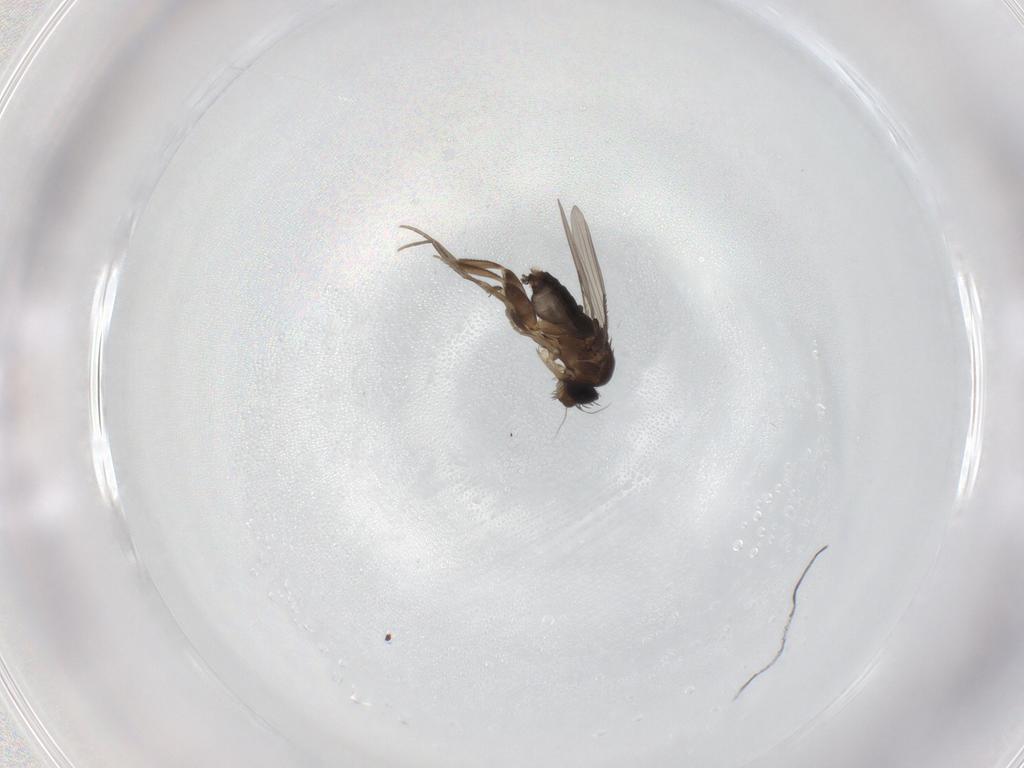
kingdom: Animalia
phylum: Arthropoda
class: Insecta
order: Diptera
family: Phoridae
